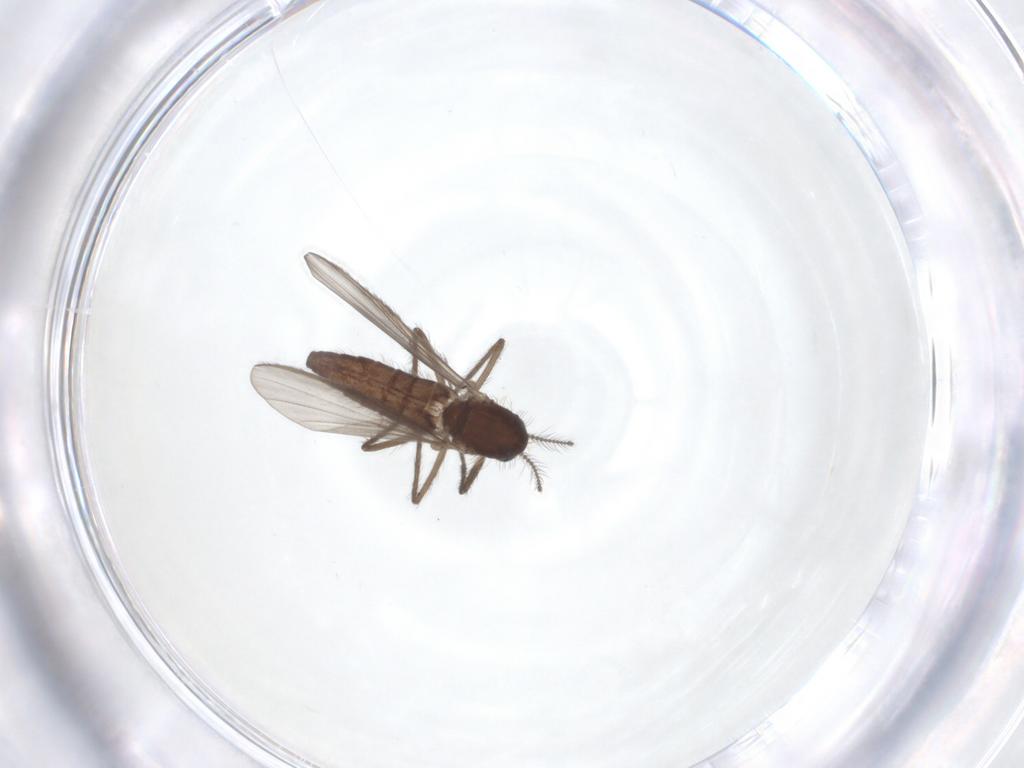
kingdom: Animalia
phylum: Arthropoda
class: Insecta
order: Diptera
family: Chironomidae
